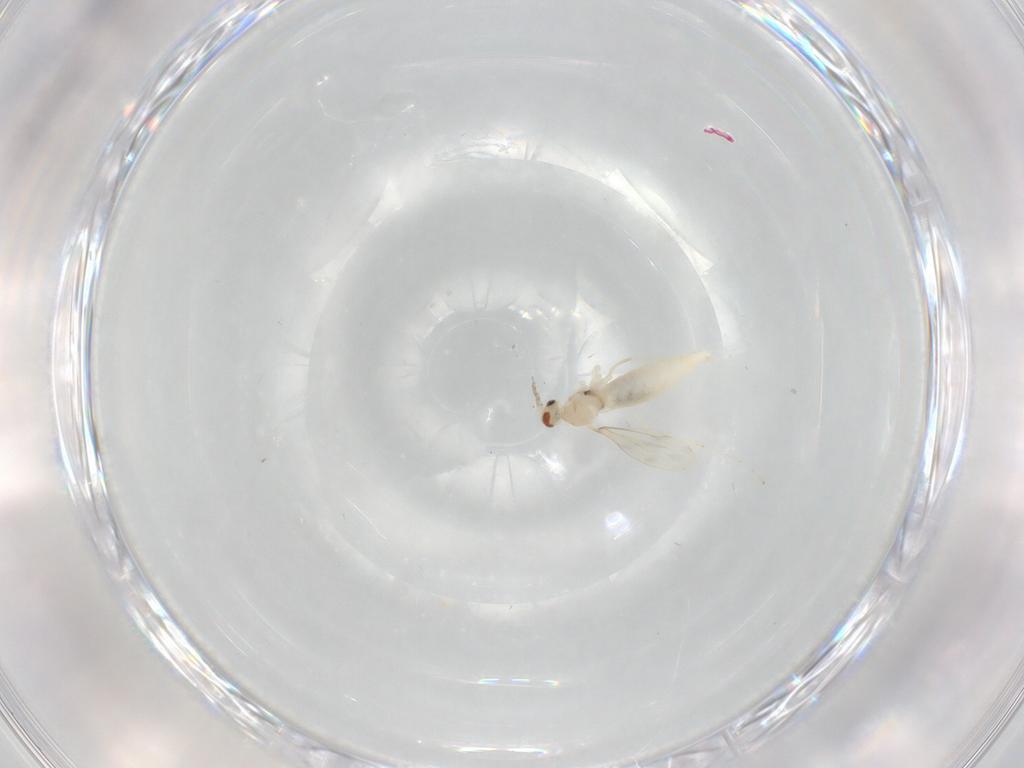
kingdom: Animalia
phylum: Arthropoda
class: Insecta
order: Diptera
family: Cecidomyiidae
